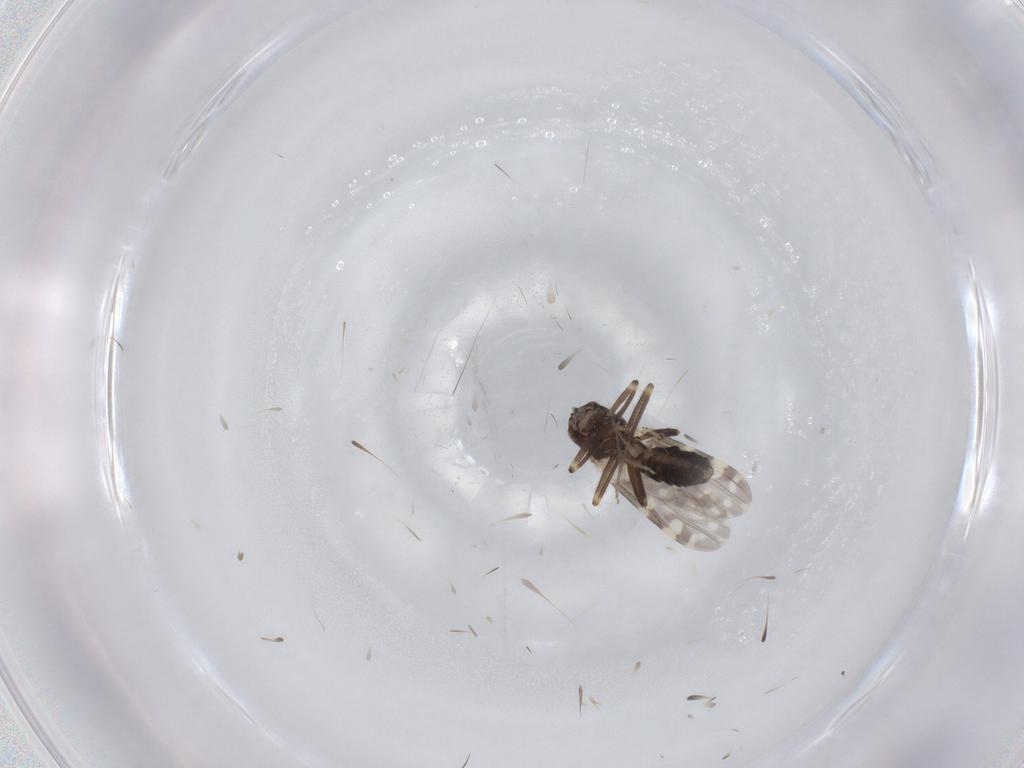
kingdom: Animalia
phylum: Arthropoda
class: Insecta
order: Diptera
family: Ceratopogonidae
